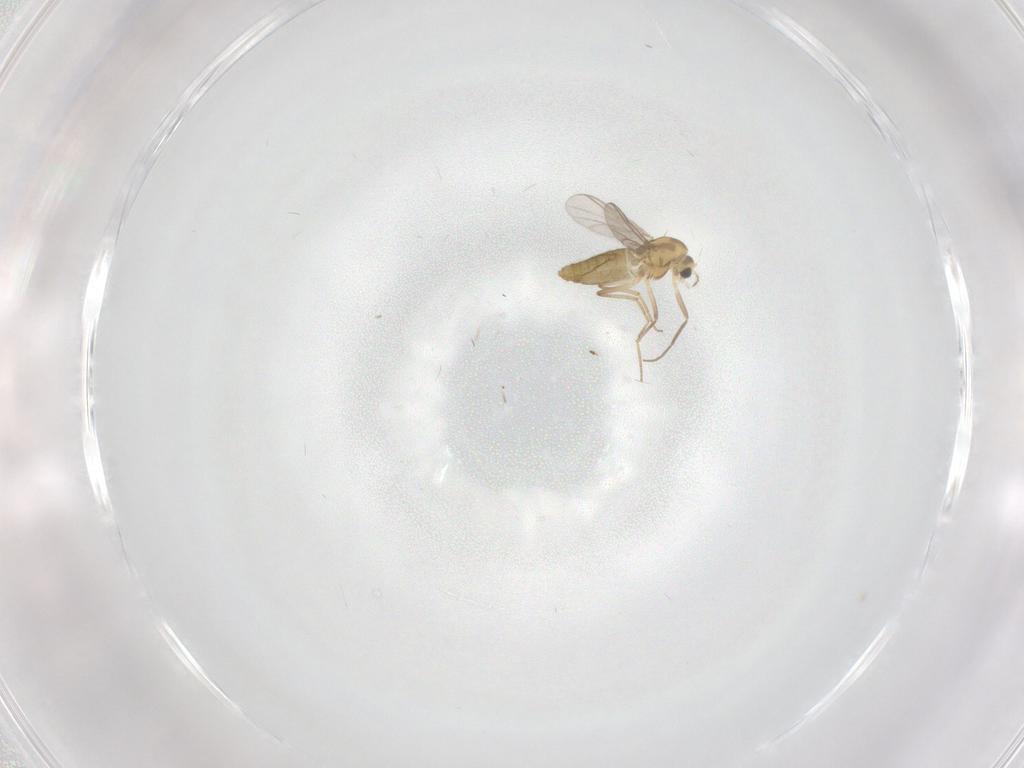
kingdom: Animalia
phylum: Arthropoda
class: Insecta
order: Diptera
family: Chironomidae
